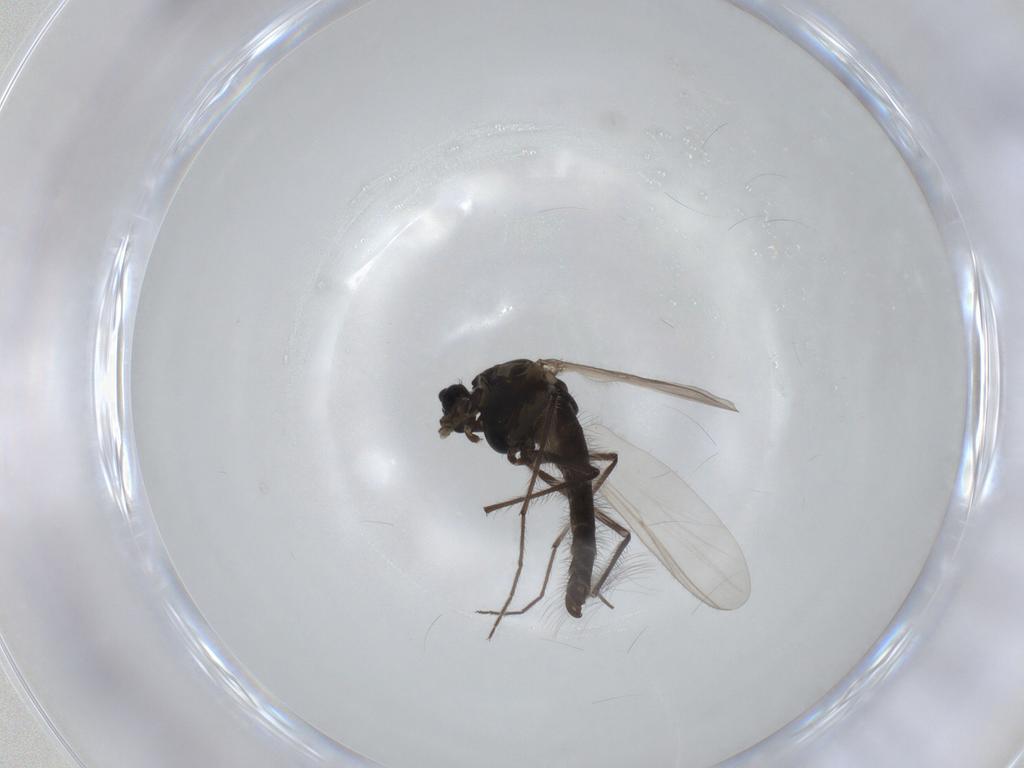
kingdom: Animalia
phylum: Arthropoda
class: Insecta
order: Diptera
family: Chironomidae
